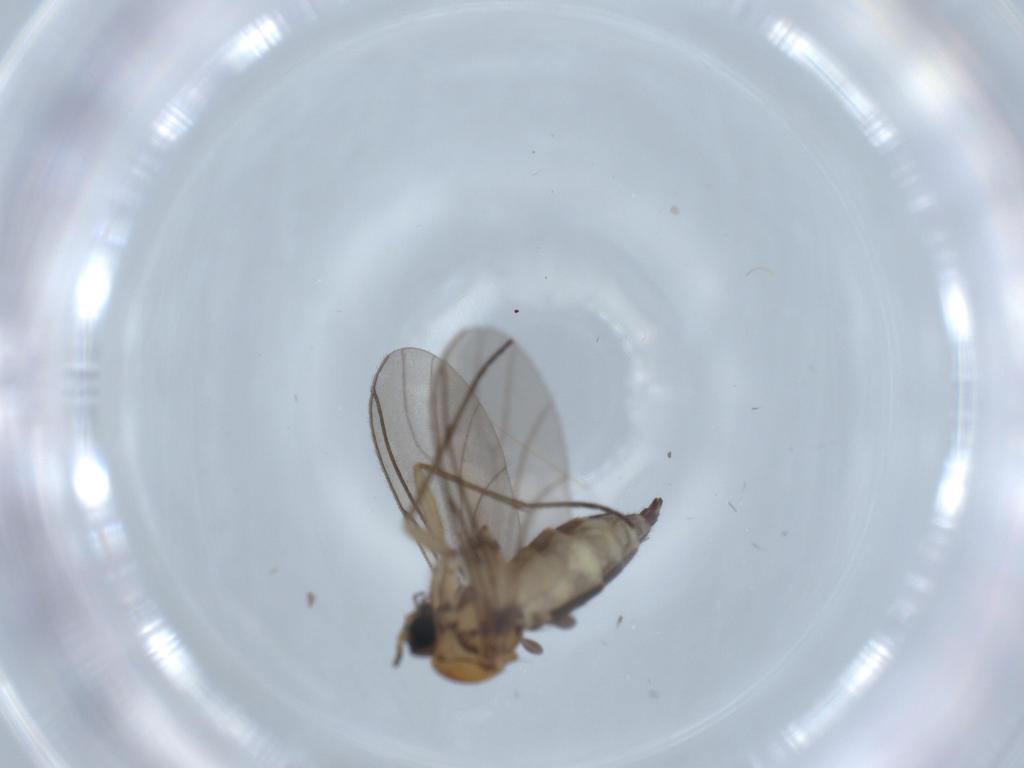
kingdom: Animalia
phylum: Arthropoda
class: Insecta
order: Diptera
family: Sciaridae
